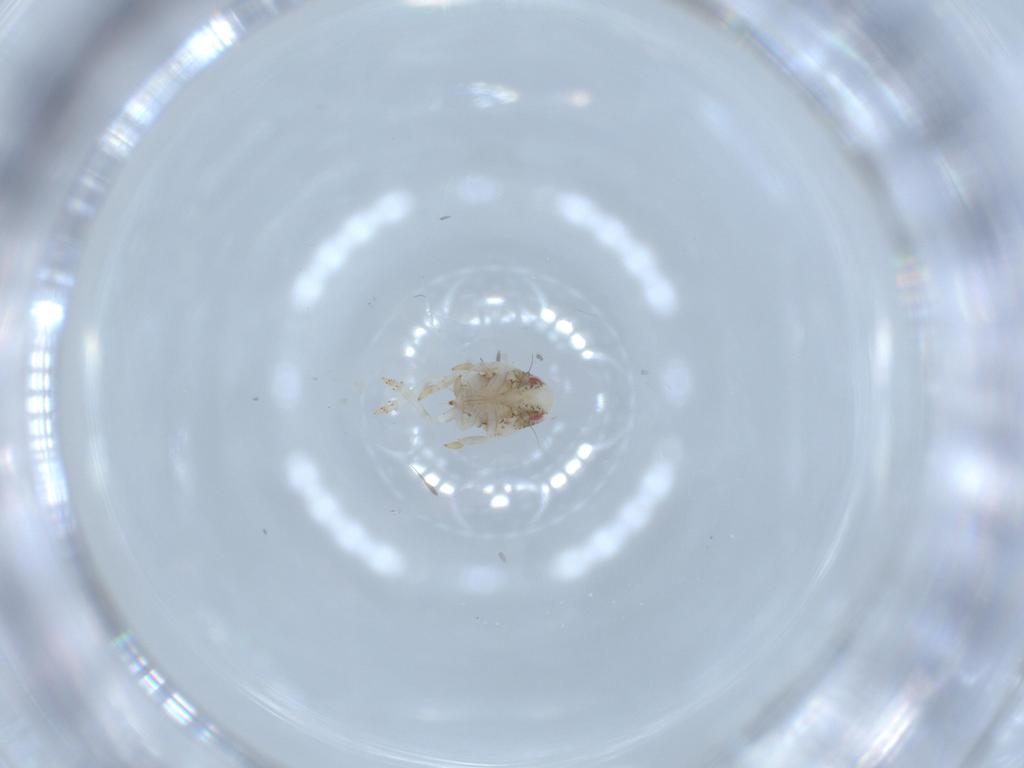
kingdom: Animalia
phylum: Arthropoda
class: Insecta
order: Hemiptera
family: Acanaloniidae
